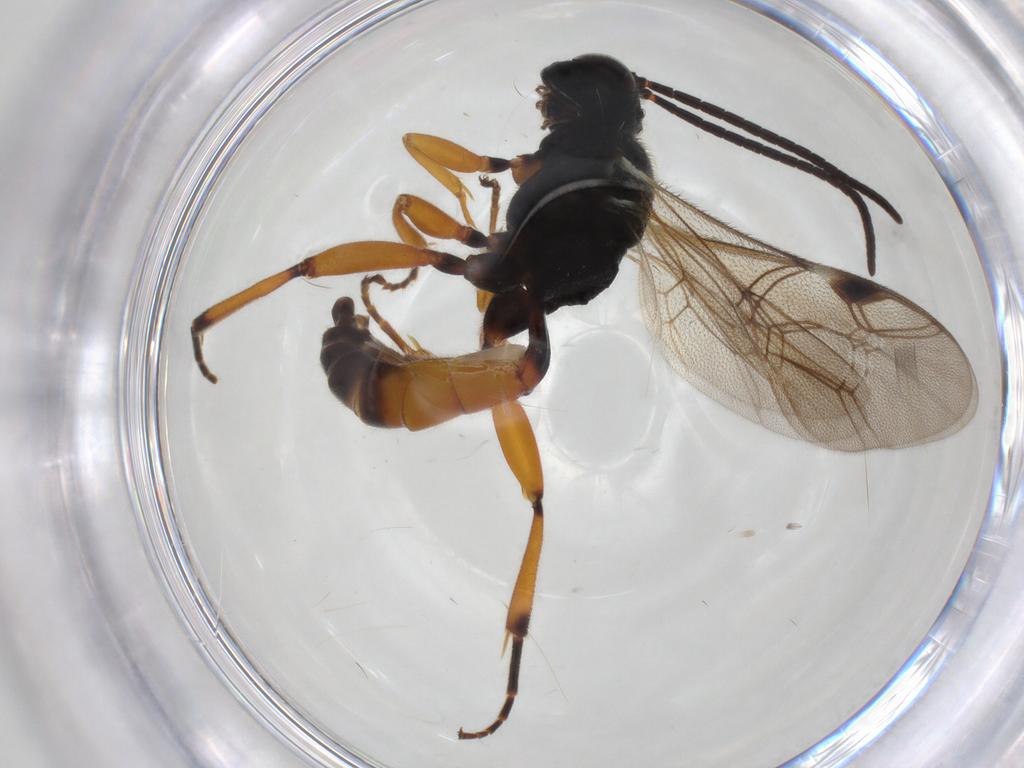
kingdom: Animalia
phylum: Arthropoda
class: Insecta
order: Hymenoptera
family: Ichneumonidae
